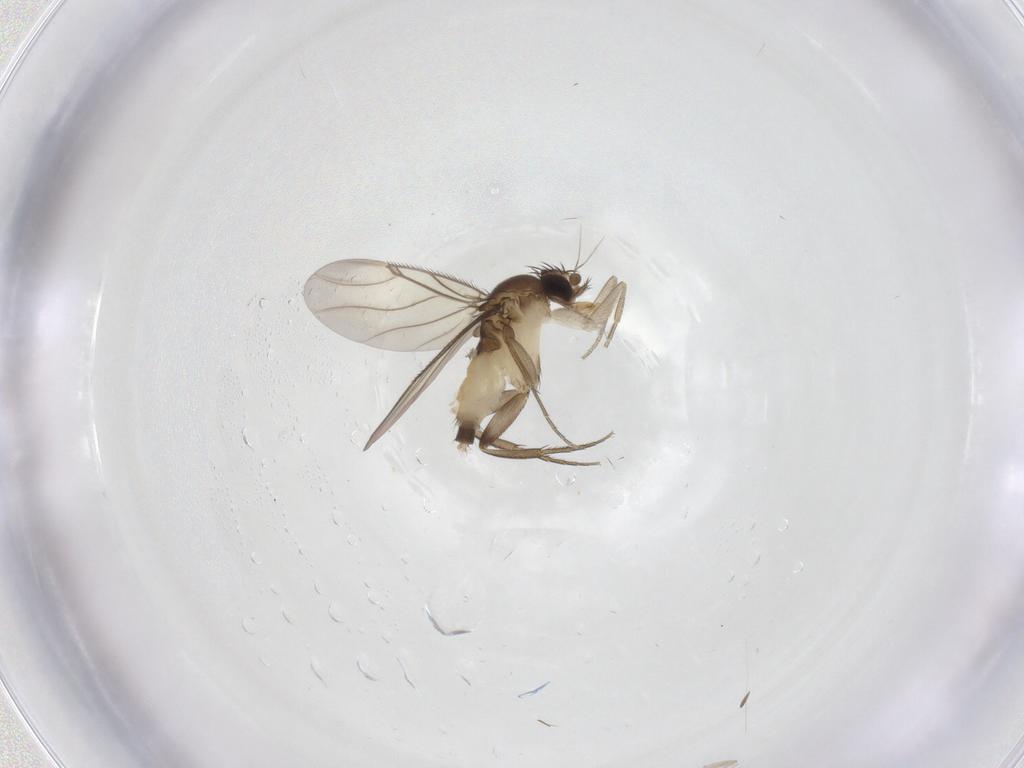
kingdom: Animalia
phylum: Arthropoda
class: Insecta
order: Diptera
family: Phoridae
